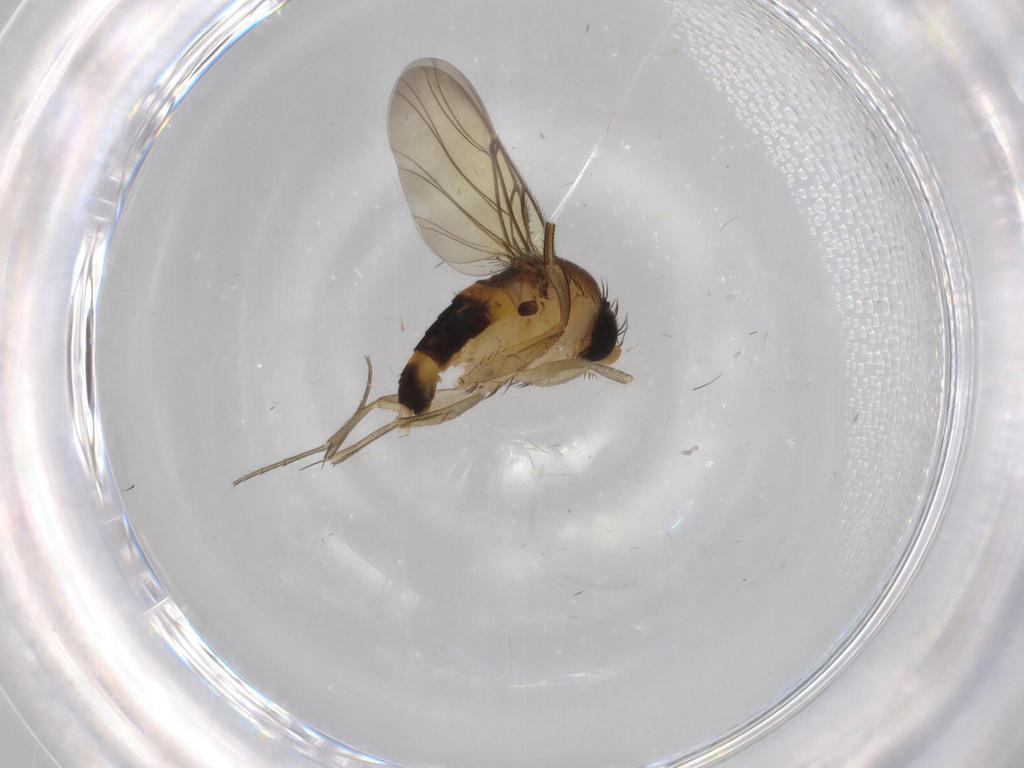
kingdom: Animalia
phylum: Arthropoda
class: Insecta
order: Diptera
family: Phoridae
